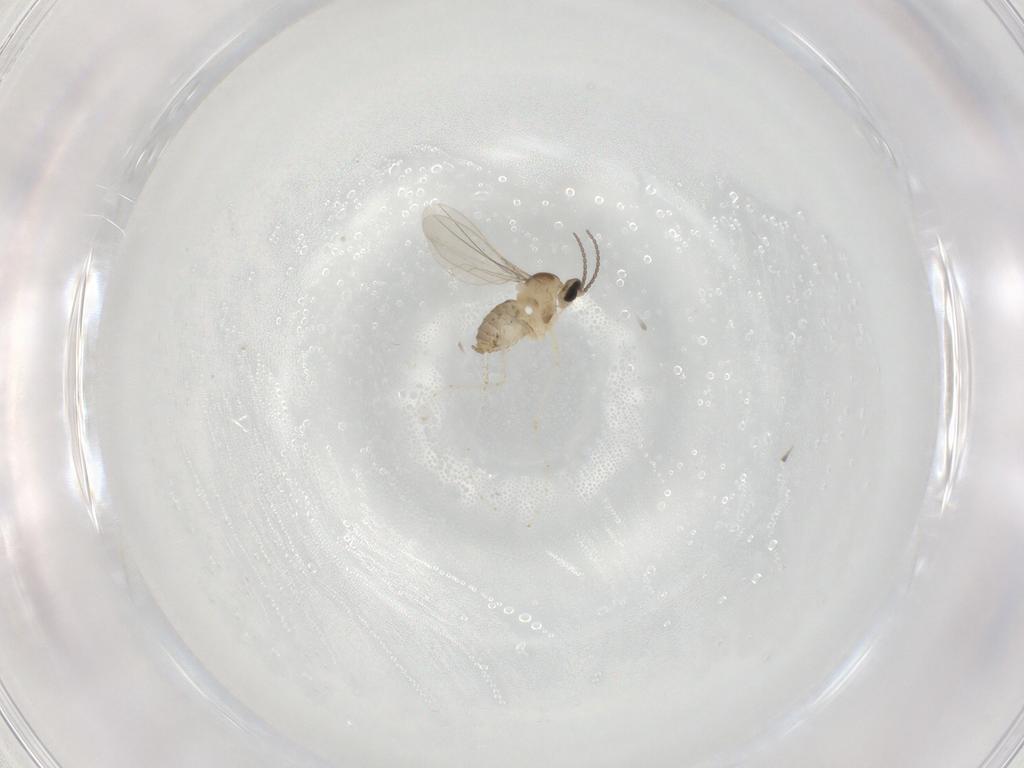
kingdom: Animalia
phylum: Arthropoda
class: Insecta
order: Diptera
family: Cecidomyiidae
